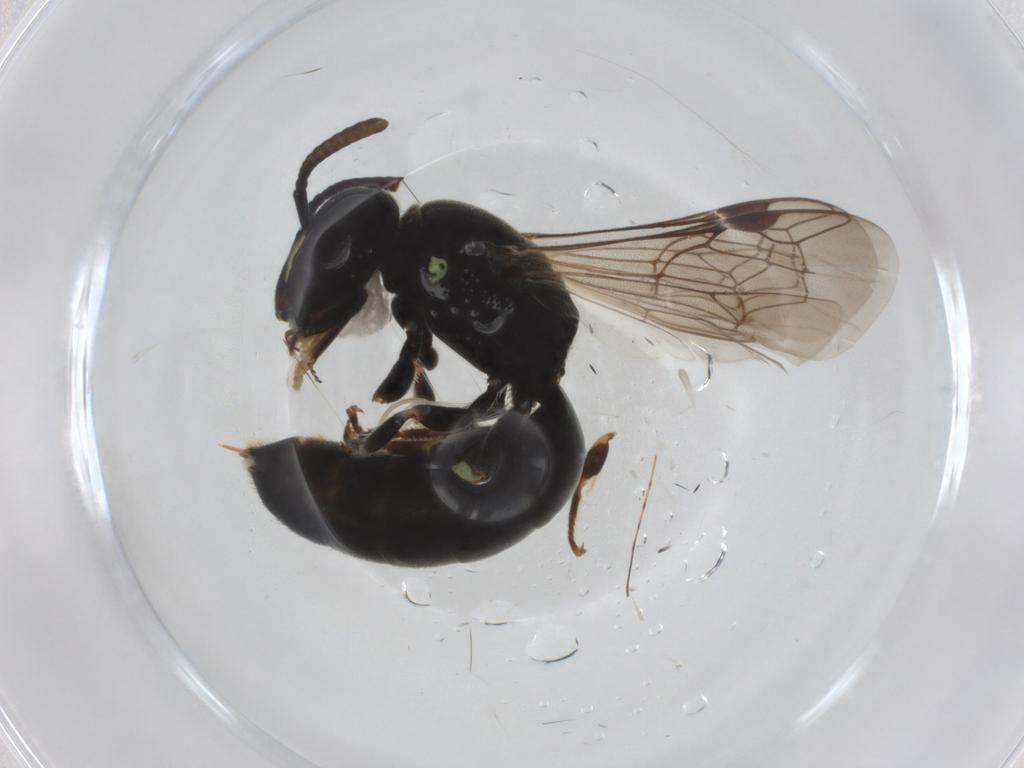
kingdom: Animalia
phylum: Arthropoda
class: Insecta
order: Hymenoptera
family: Colletidae
